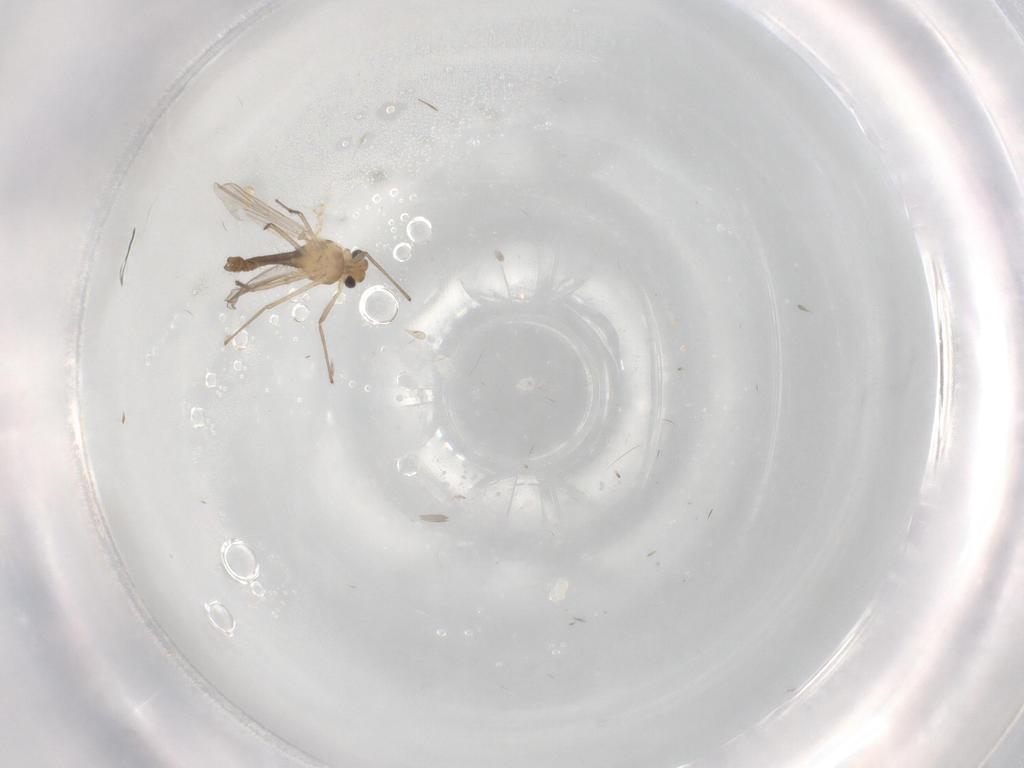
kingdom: Animalia
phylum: Arthropoda
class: Insecta
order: Diptera
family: Chironomidae
